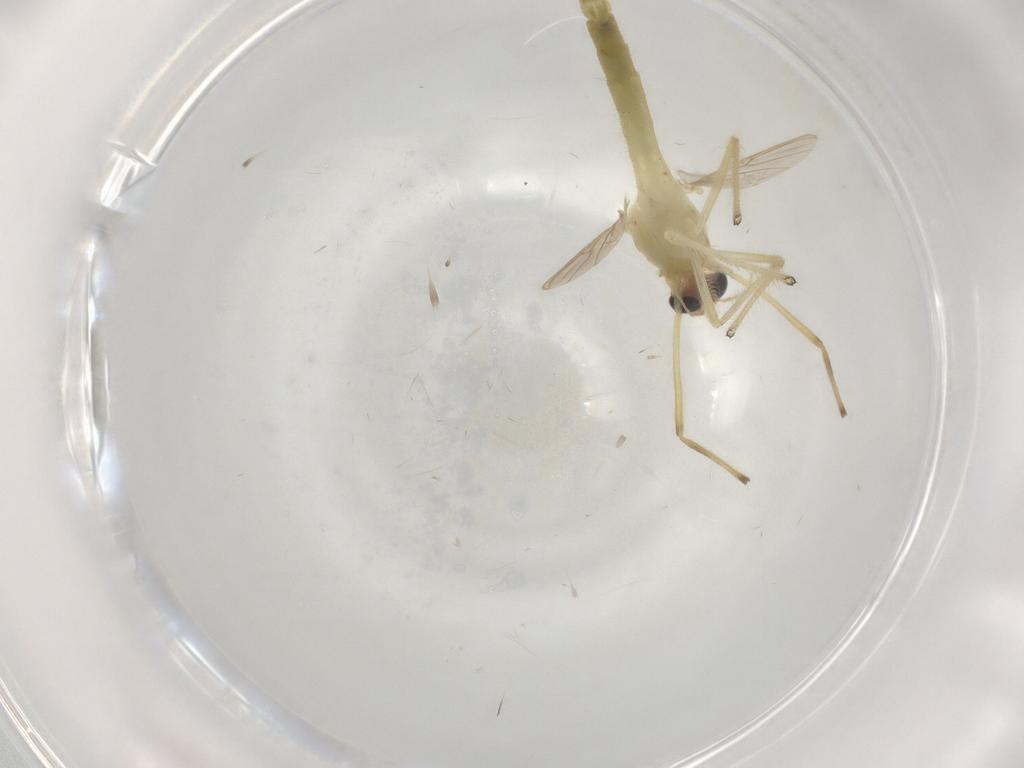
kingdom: Animalia
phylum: Arthropoda
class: Insecta
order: Diptera
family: Chironomidae
